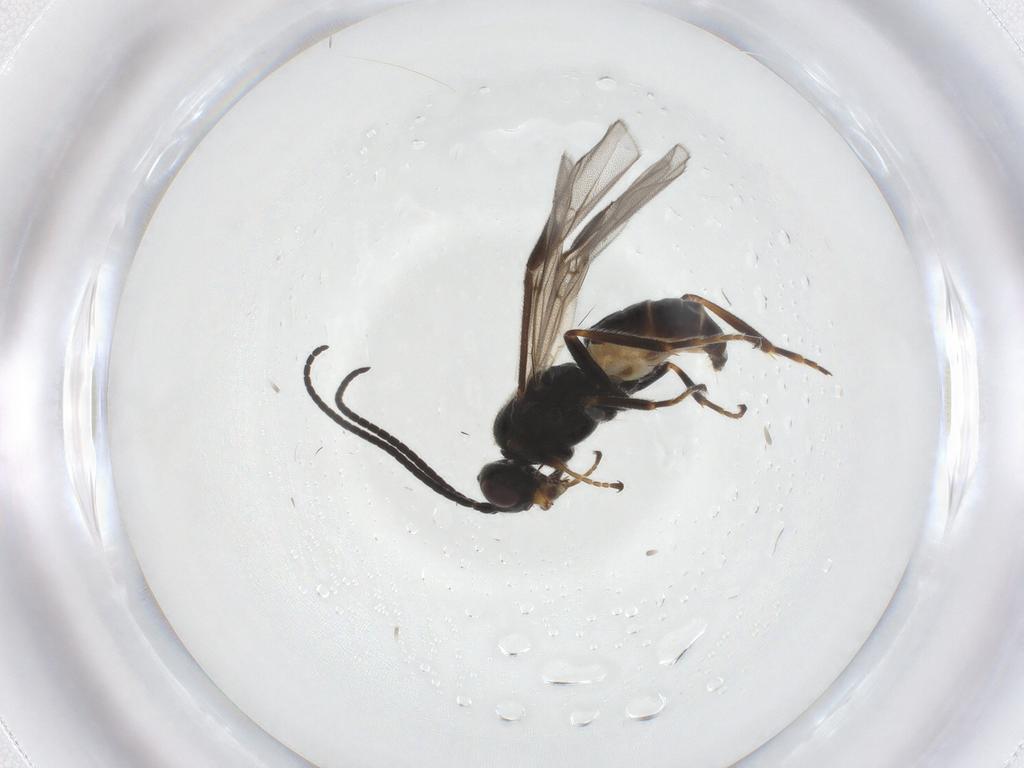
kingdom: Animalia
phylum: Arthropoda
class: Insecta
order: Hymenoptera
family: Braconidae
